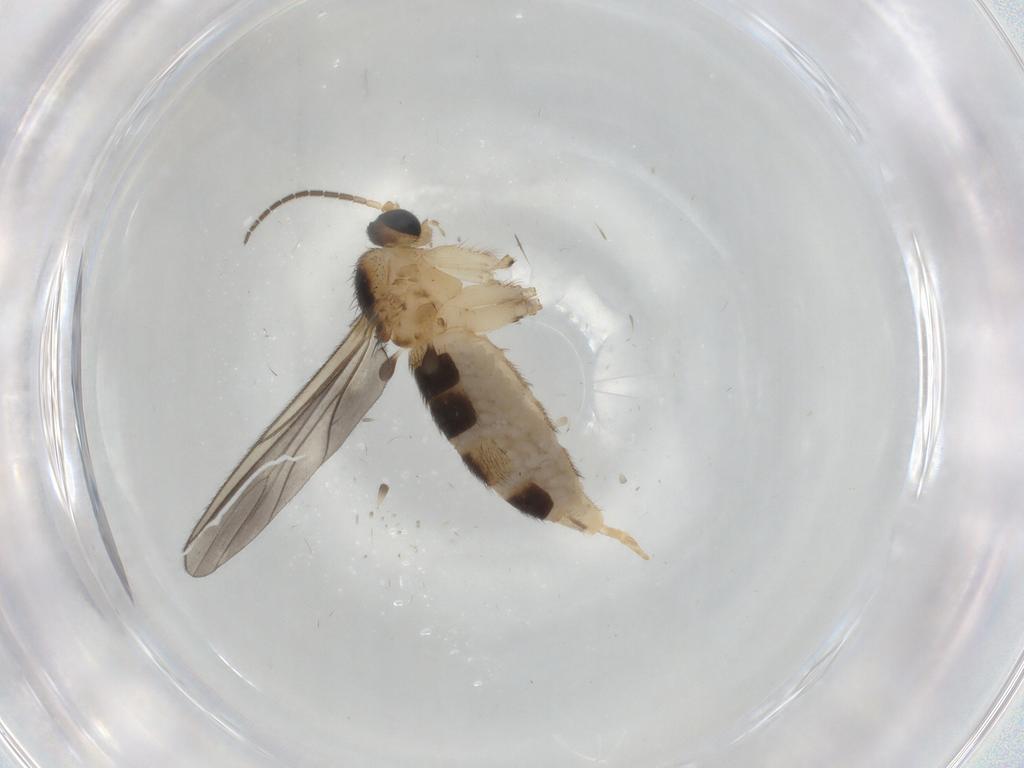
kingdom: Animalia
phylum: Arthropoda
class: Insecta
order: Diptera
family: Sciaridae
